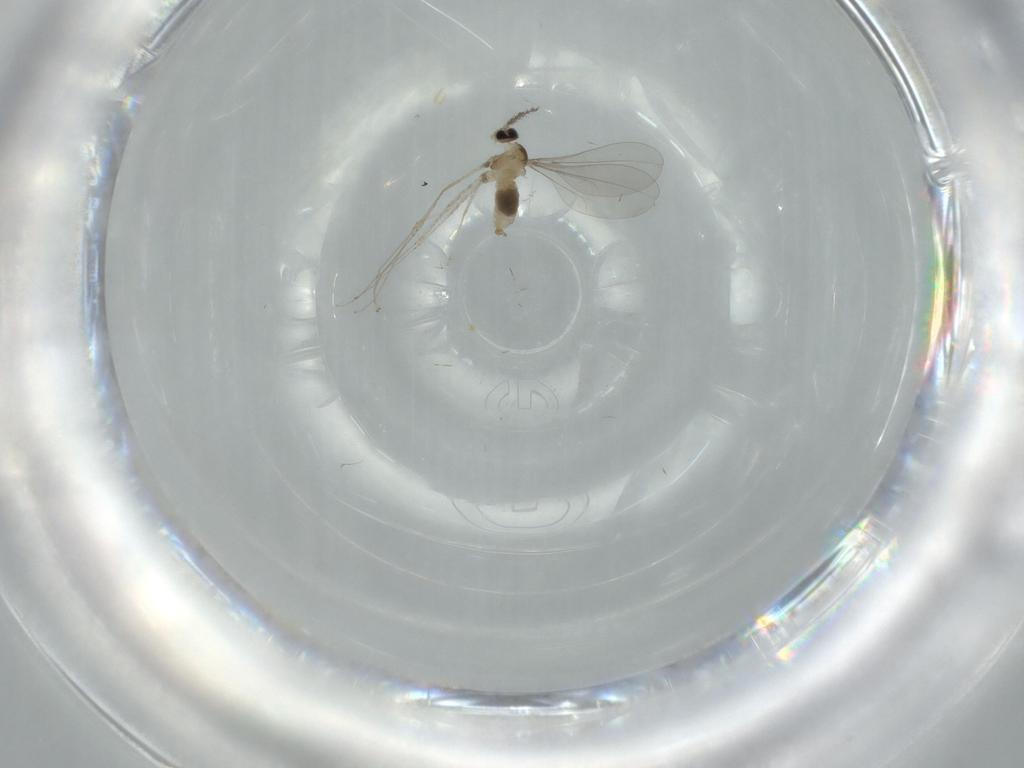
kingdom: Animalia
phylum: Arthropoda
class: Insecta
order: Diptera
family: Cecidomyiidae
